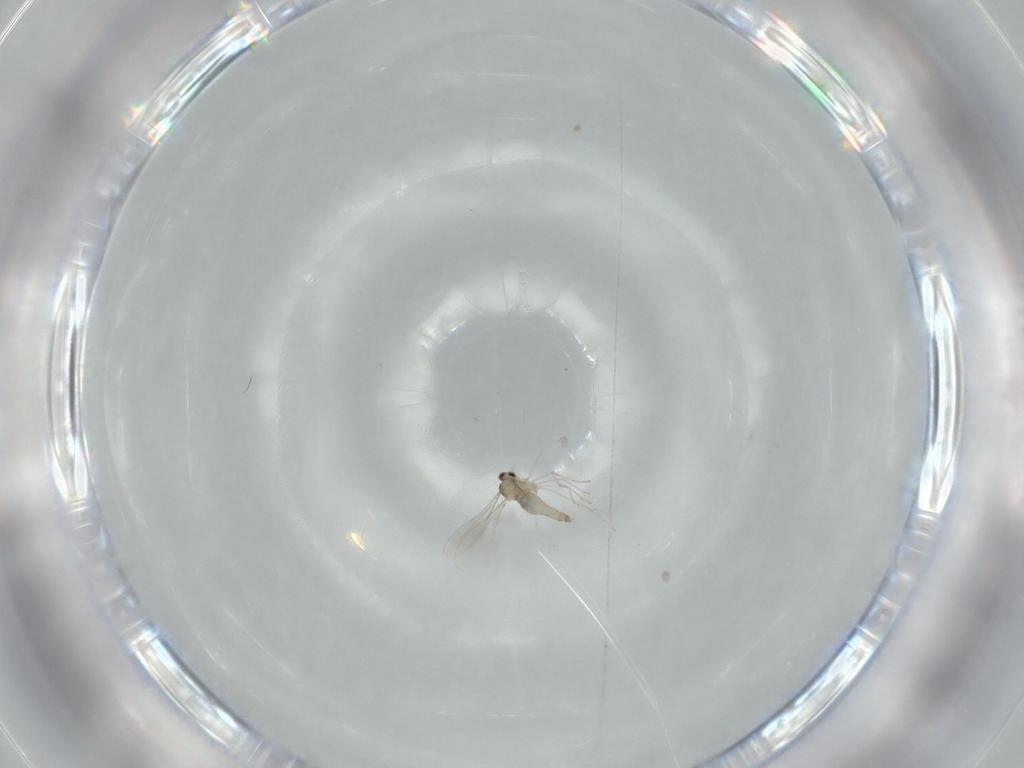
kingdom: Animalia
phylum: Arthropoda
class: Insecta
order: Diptera
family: Cecidomyiidae
